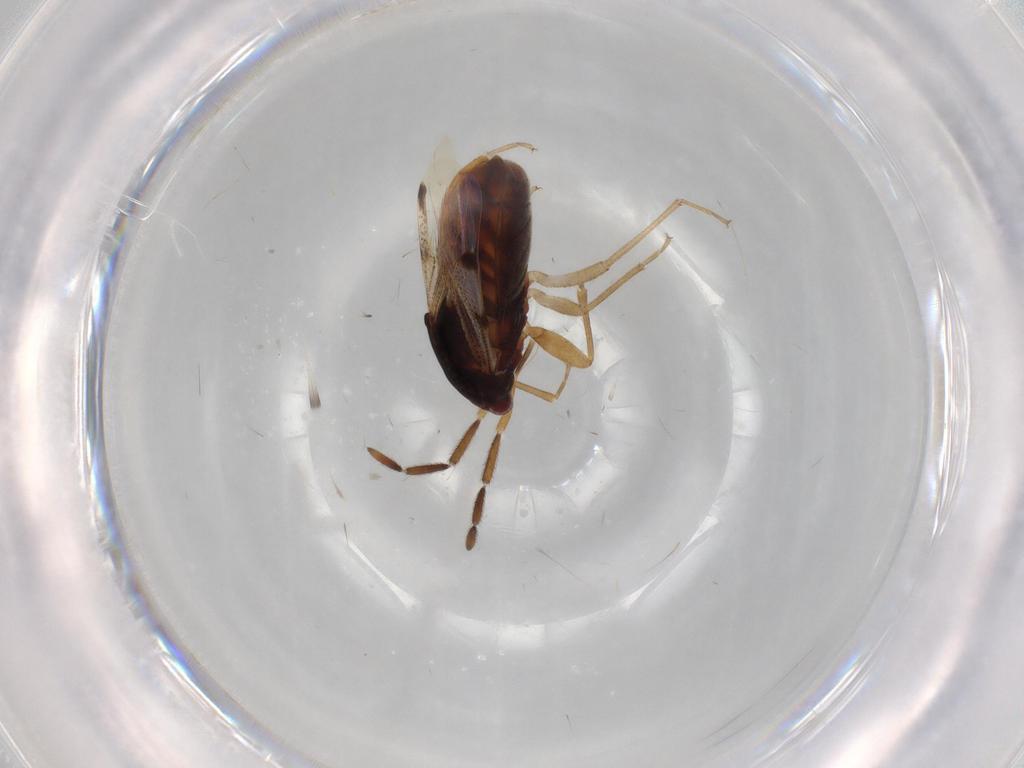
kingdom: Animalia
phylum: Arthropoda
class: Insecta
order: Hemiptera
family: Rhyparochromidae
